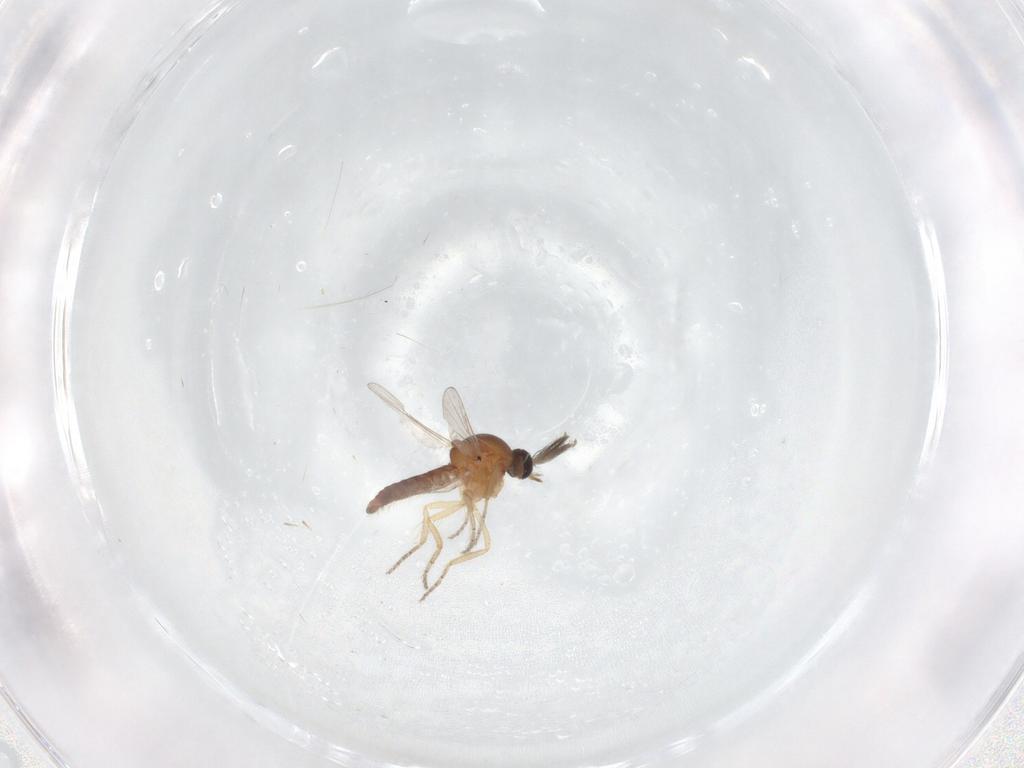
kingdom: Animalia
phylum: Arthropoda
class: Insecta
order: Diptera
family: Ceratopogonidae
